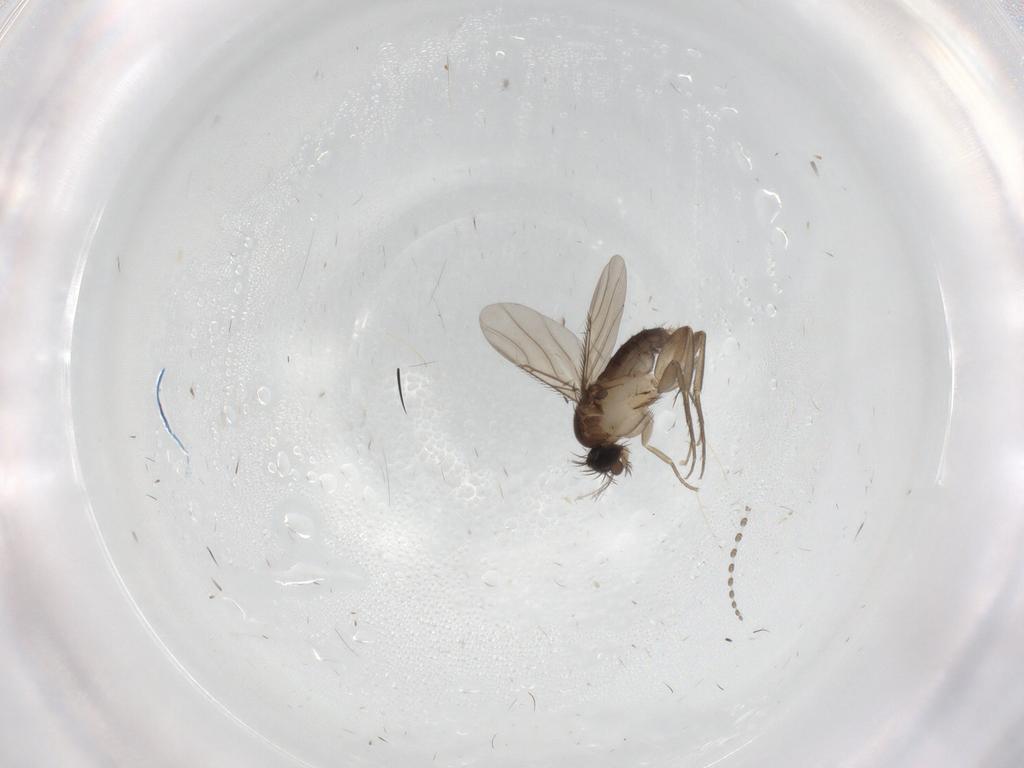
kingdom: Animalia
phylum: Arthropoda
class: Insecta
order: Diptera
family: Phoridae
